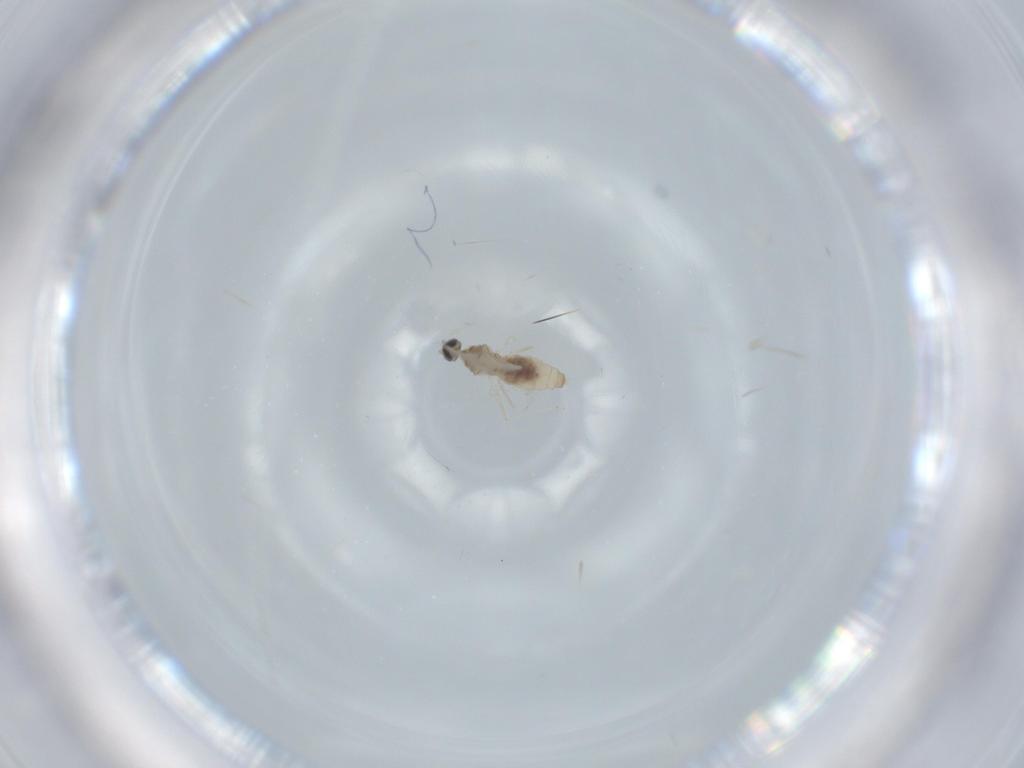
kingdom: Animalia
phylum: Arthropoda
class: Insecta
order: Diptera
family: Cecidomyiidae
